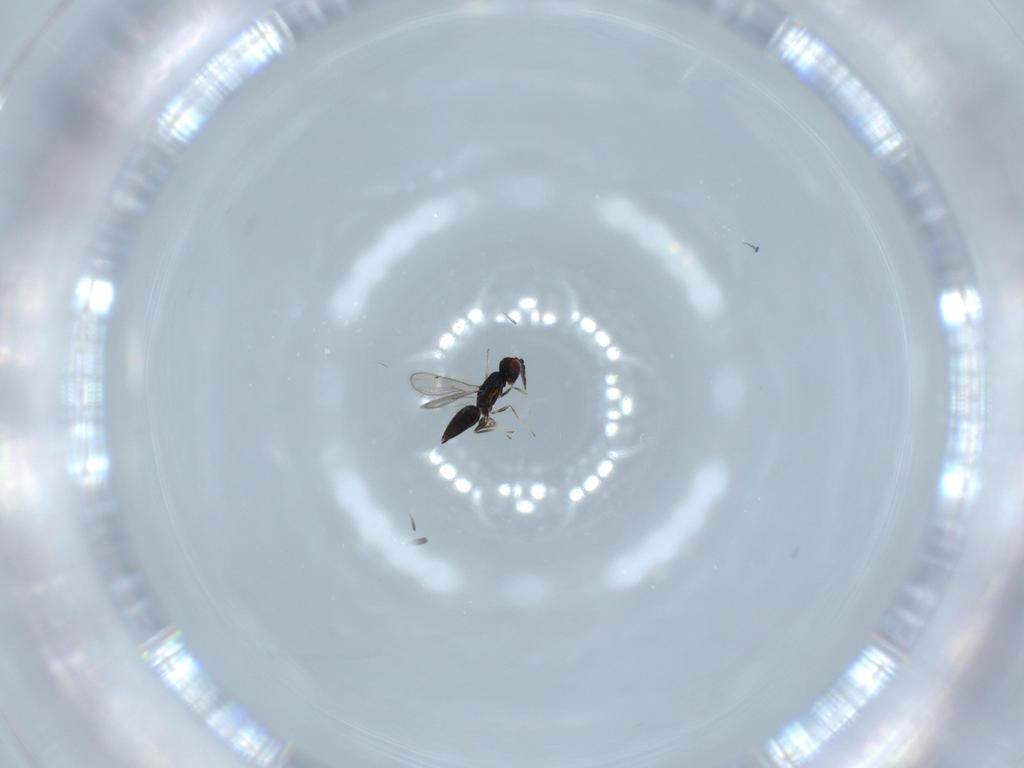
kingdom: Animalia
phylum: Arthropoda
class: Insecta
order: Hymenoptera
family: Eulophidae
